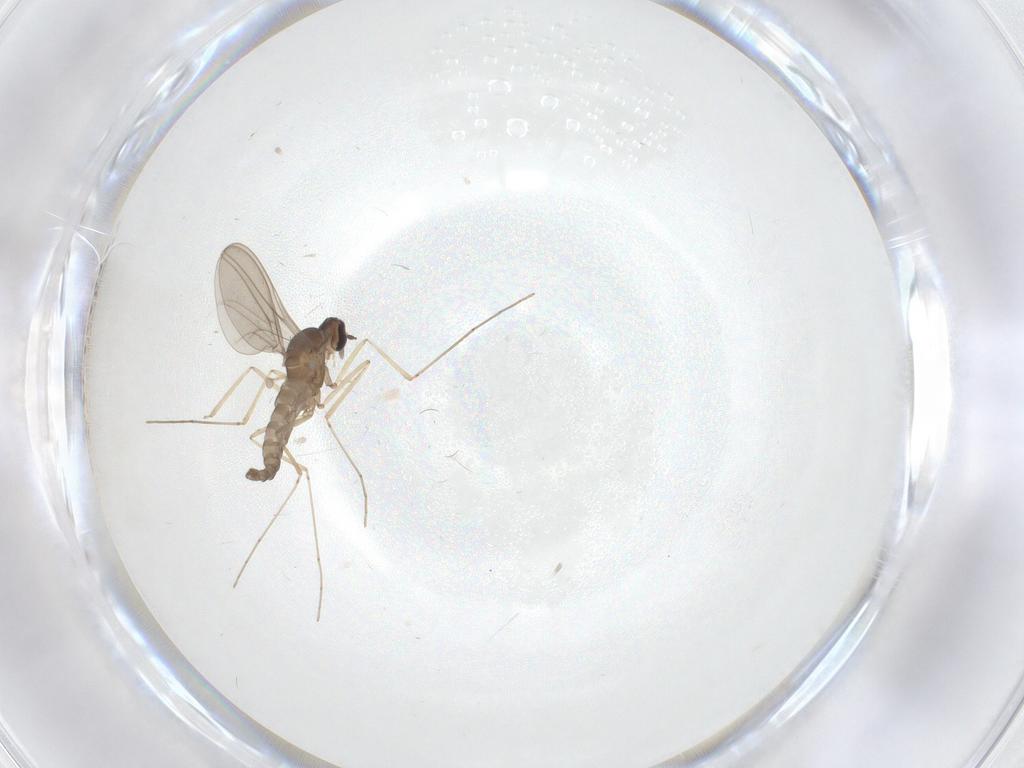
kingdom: Animalia
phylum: Arthropoda
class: Insecta
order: Diptera
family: Cecidomyiidae
